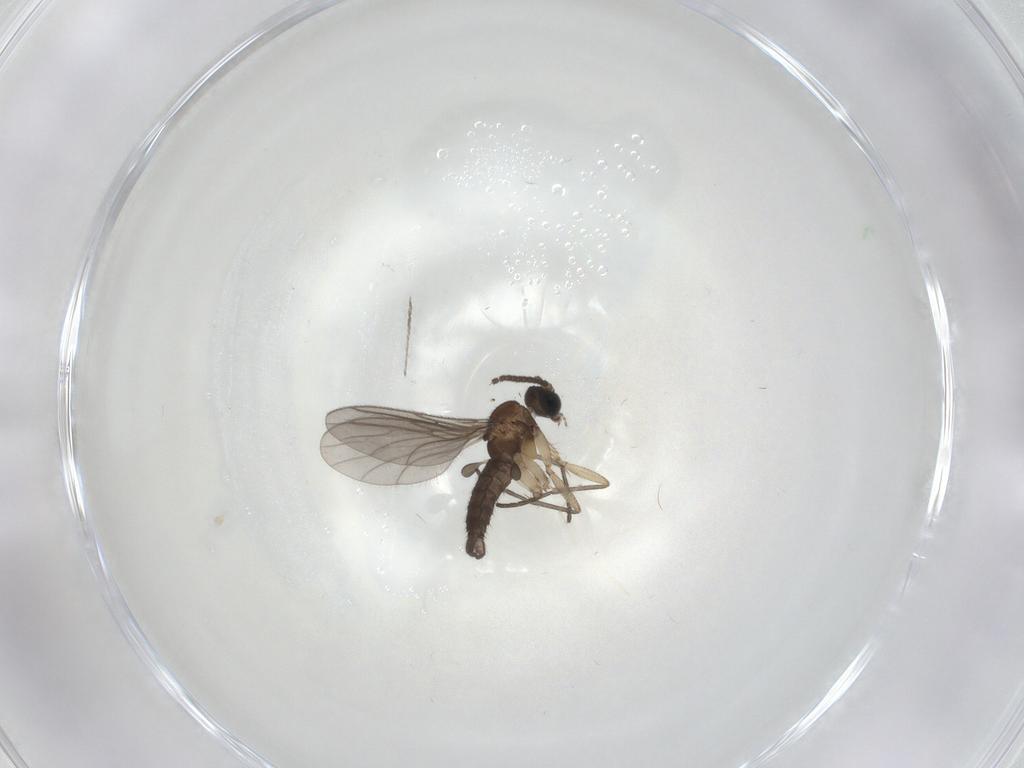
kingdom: Animalia
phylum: Arthropoda
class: Insecta
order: Diptera
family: Sciaridae
